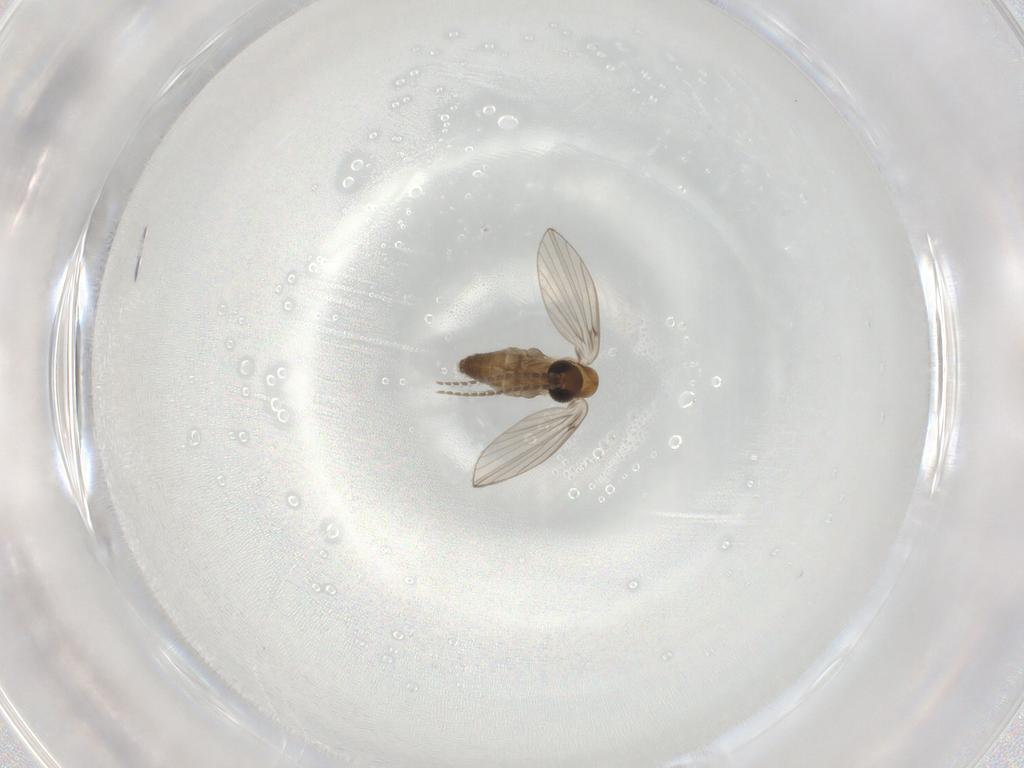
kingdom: Animalia
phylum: Arthropoda
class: Insecta
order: Diptera
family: Psychodidae
